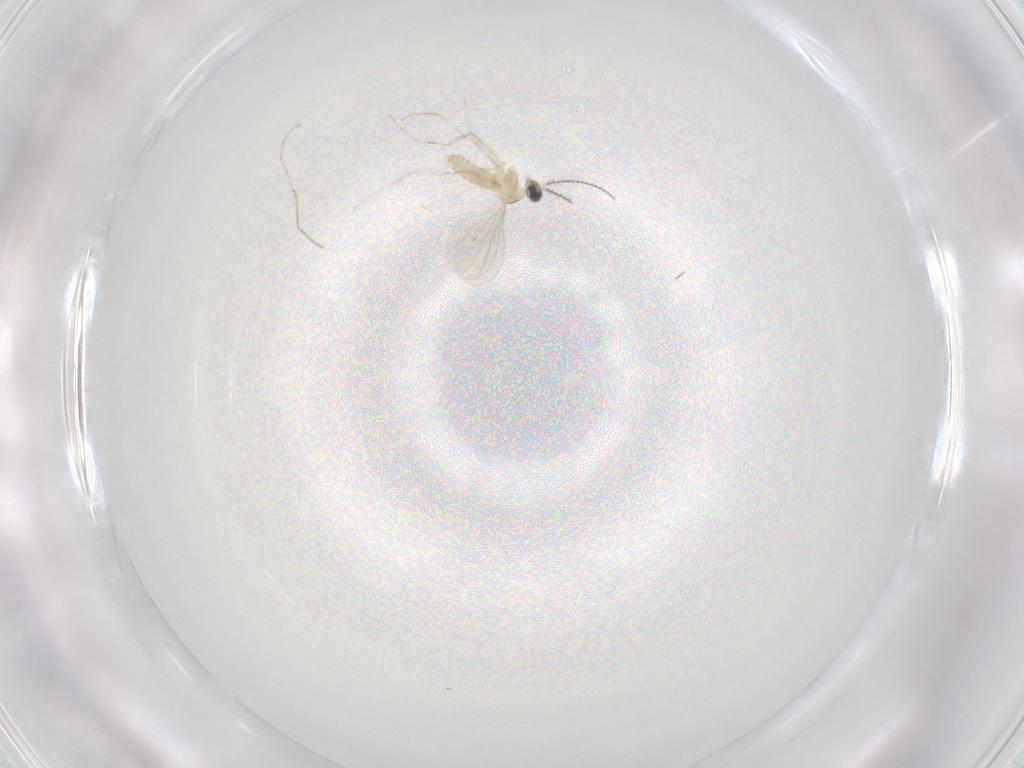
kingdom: Animalia
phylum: Arthropoda
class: Insecta
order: Diptera
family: Cecidomyiidae
